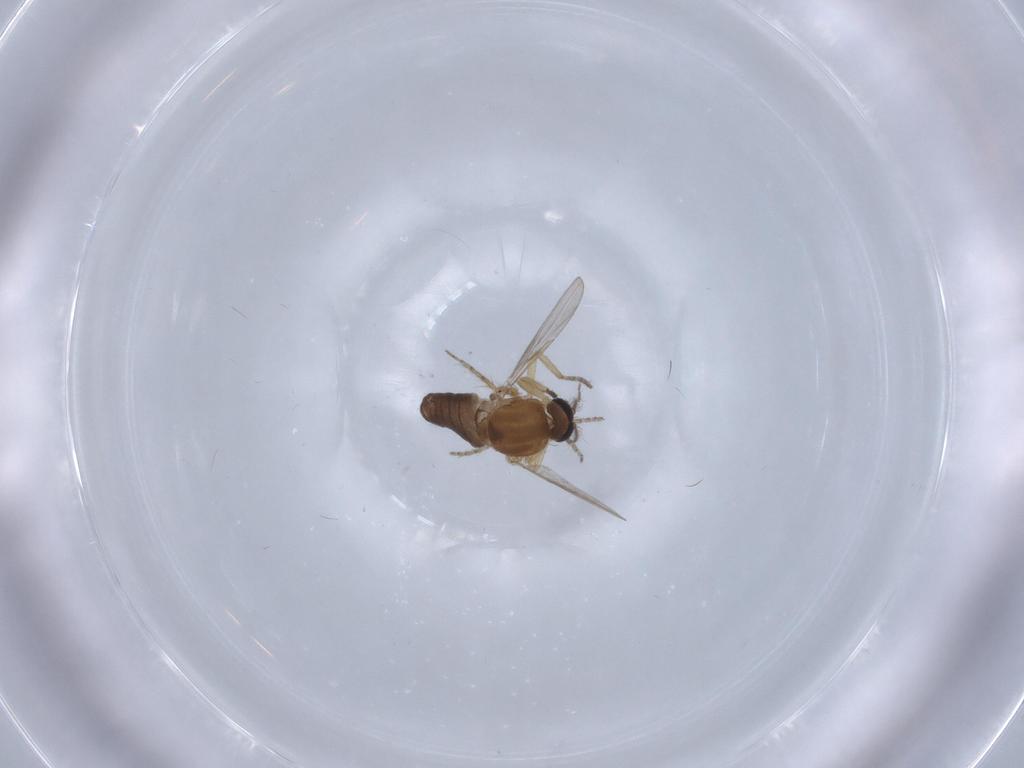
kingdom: Animalia
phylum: Arthropoda
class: Insecta
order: Diptera
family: Ceratopogonidae
